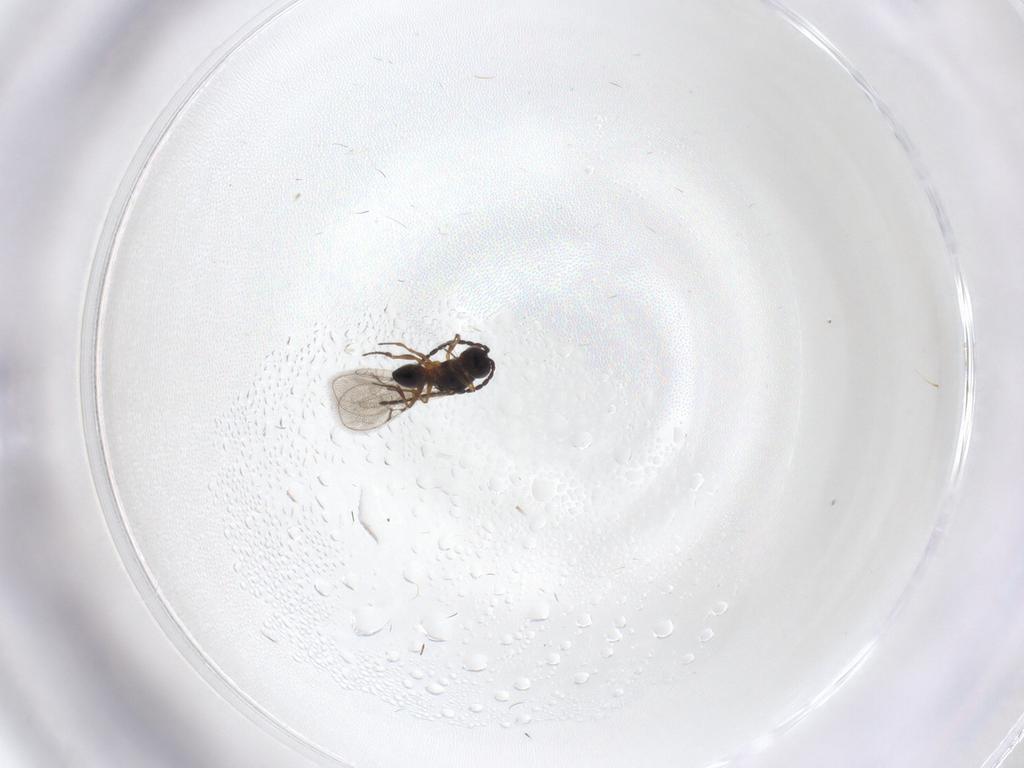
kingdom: Animalia
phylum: Arthropoda
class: Insecta
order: Hymenoptera
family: Figitidae
